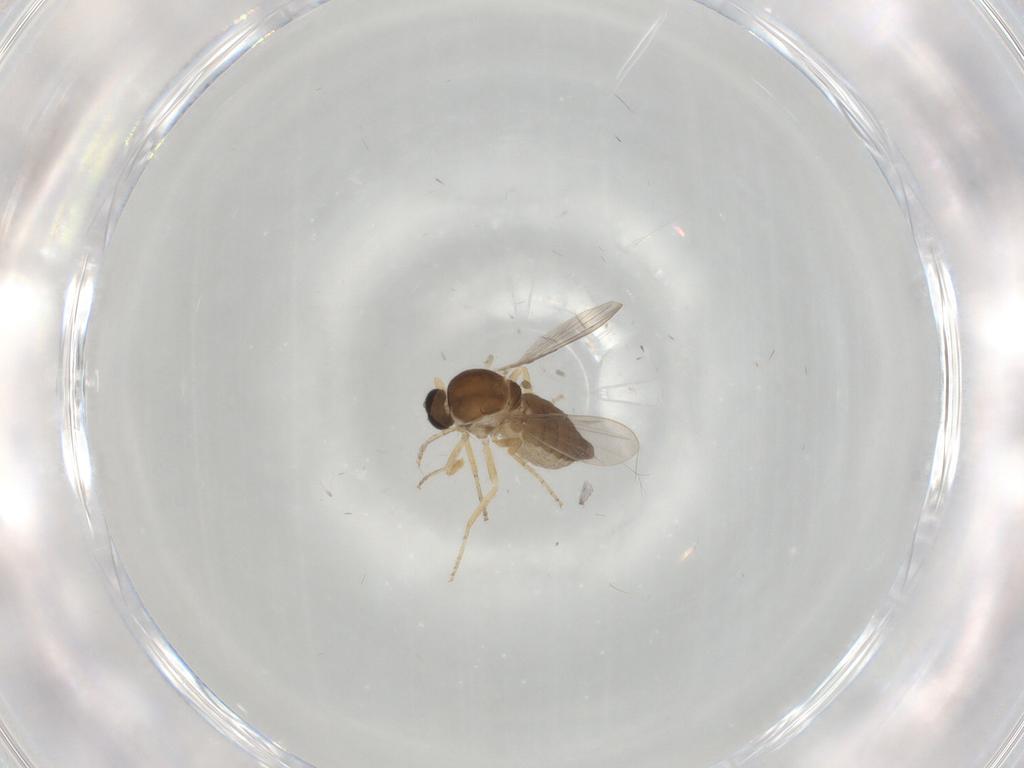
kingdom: Animalia
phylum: Arthropoda
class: Insecta
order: Diptera
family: Ceratopogonidae
